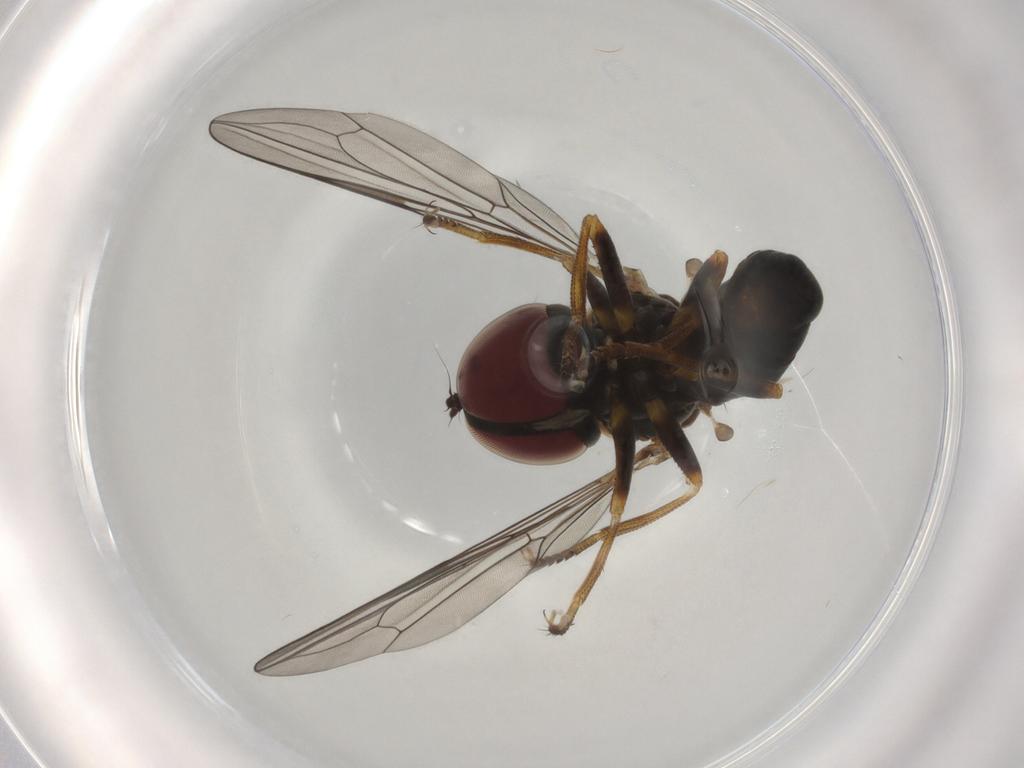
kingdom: Animalia
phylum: Arthropoda
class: Insecta
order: Diptera
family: Pipunculidae
